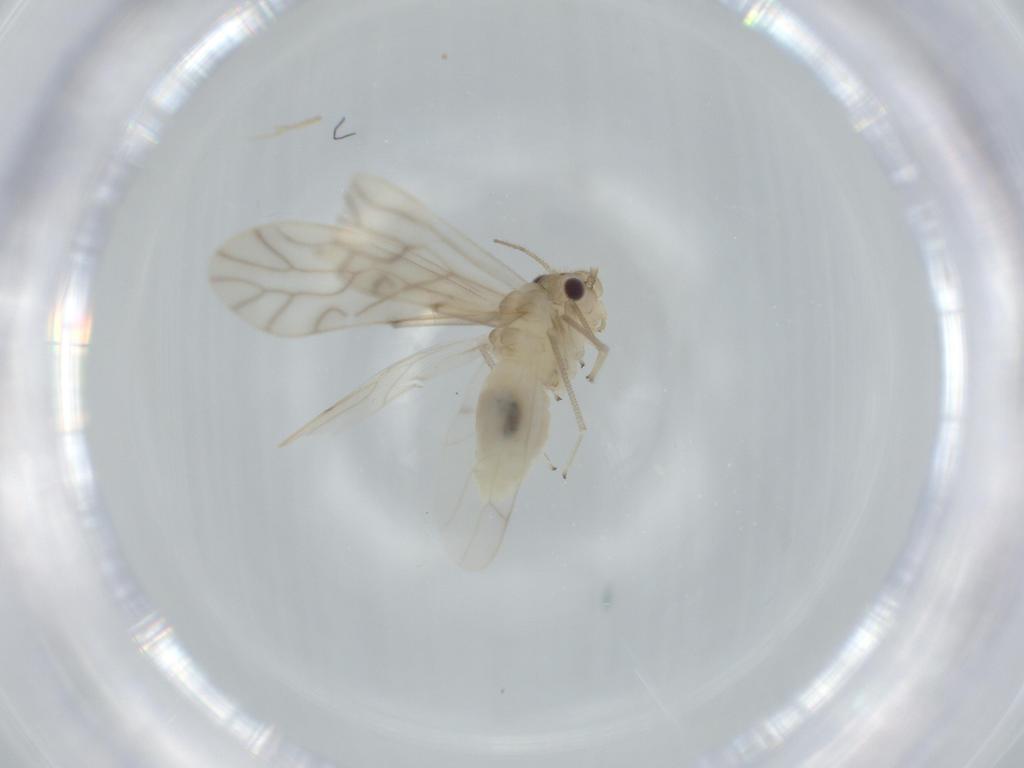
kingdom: Animalia
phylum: Arthropoda
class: Insecta
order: Psocodea
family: Caeciliusidae
